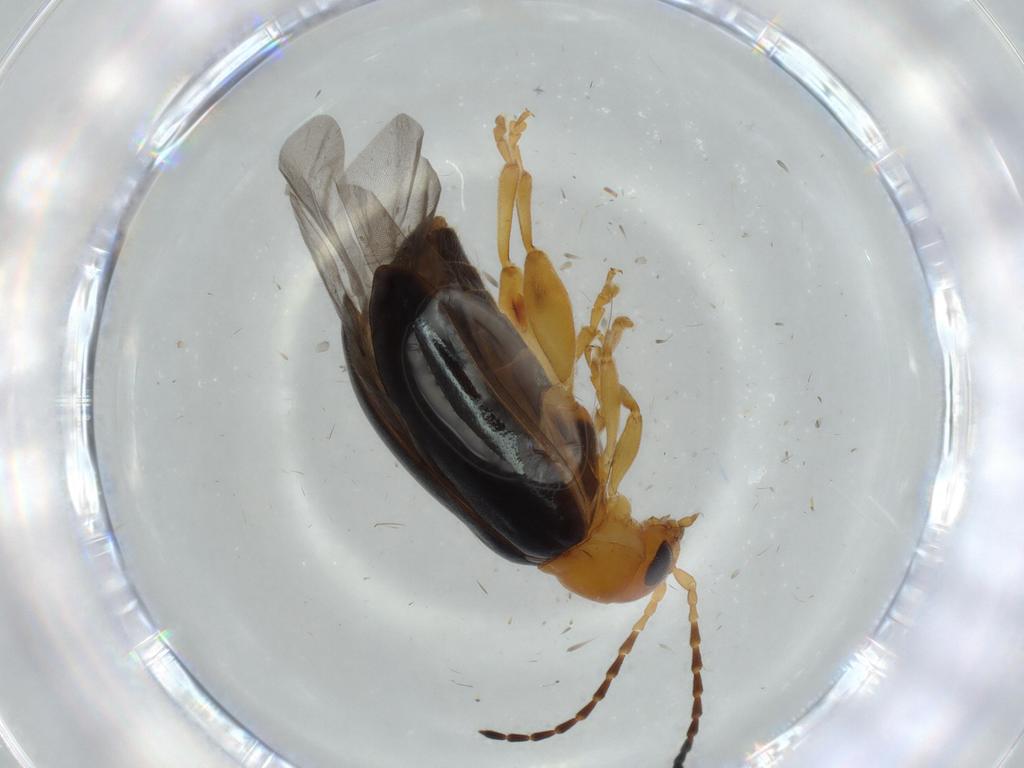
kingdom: Animalia
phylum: Arthropoda
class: Insecta
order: Coleoptera
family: Chrysomelidae
